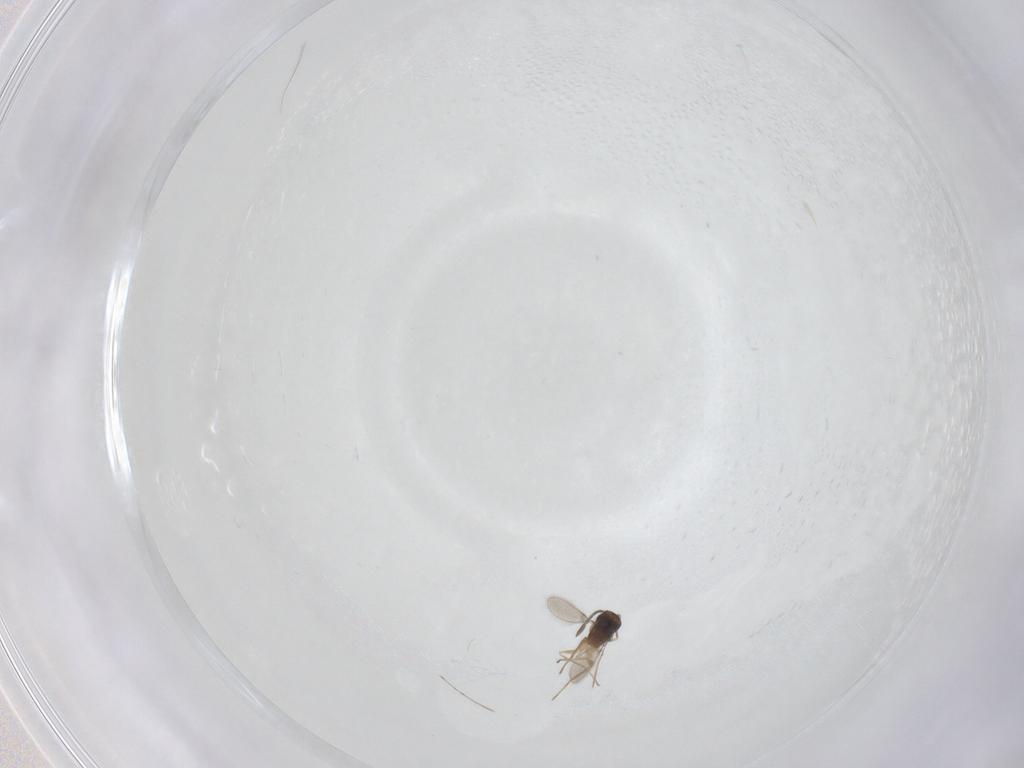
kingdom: Animalia
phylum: Arthropoda
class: Insecta
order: Hymenoptera
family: Mymaridae
